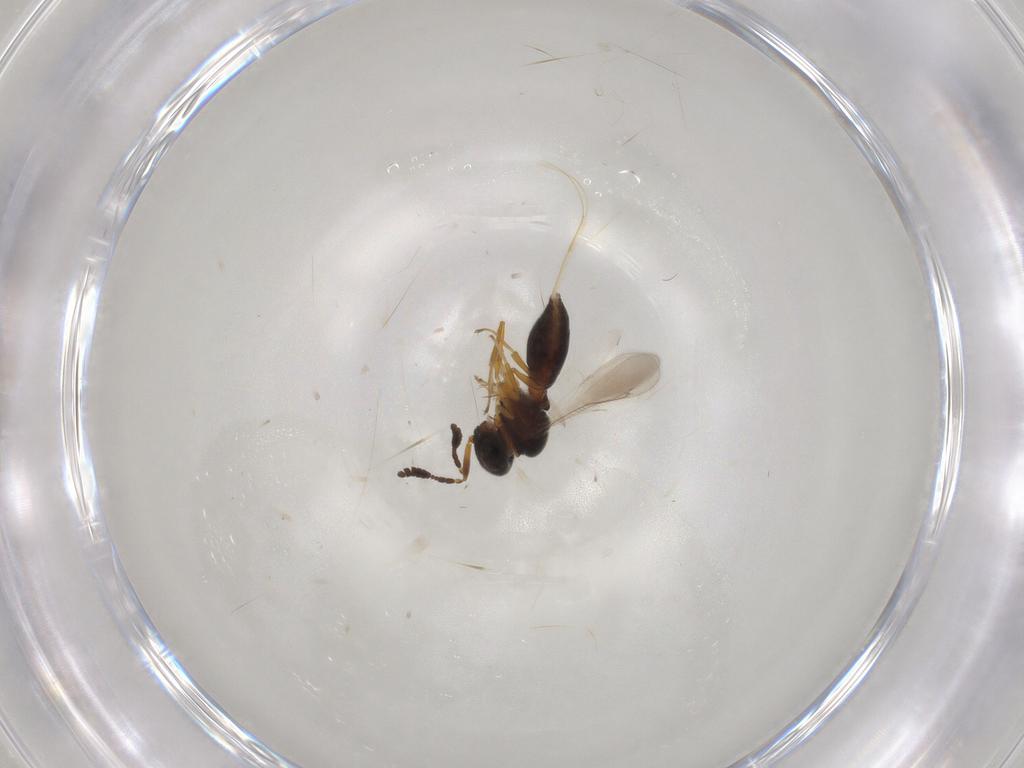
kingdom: Animalia
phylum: Arthropoda
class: Insecta
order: Hymenoptera
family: Scelionidae
